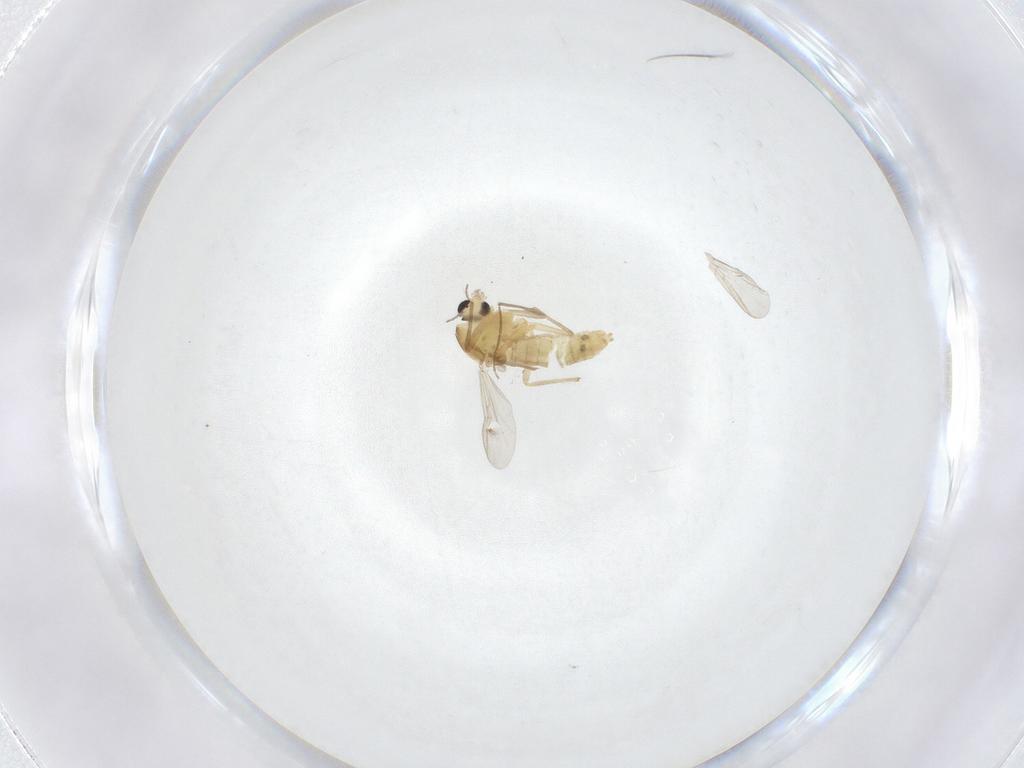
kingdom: Animalia
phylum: Arthropoda
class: Insecta
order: Diptera
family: Chironomidae
